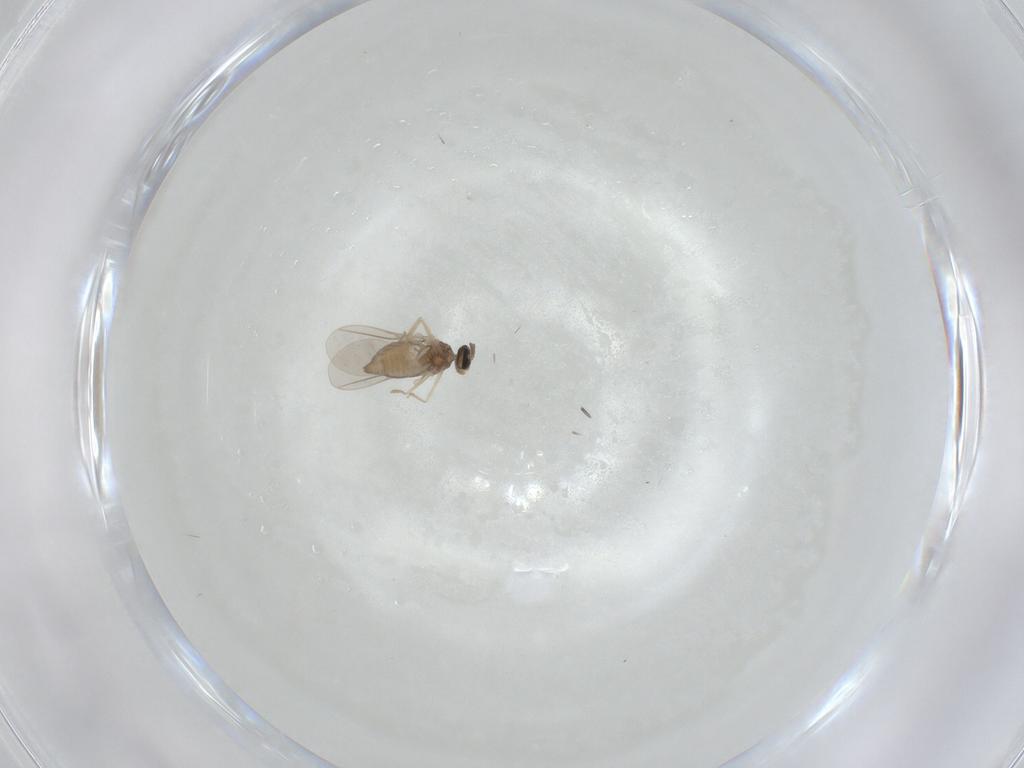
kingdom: Animalia
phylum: Arthropoda
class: Insecta
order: Diptera
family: Cecidomyiidae
